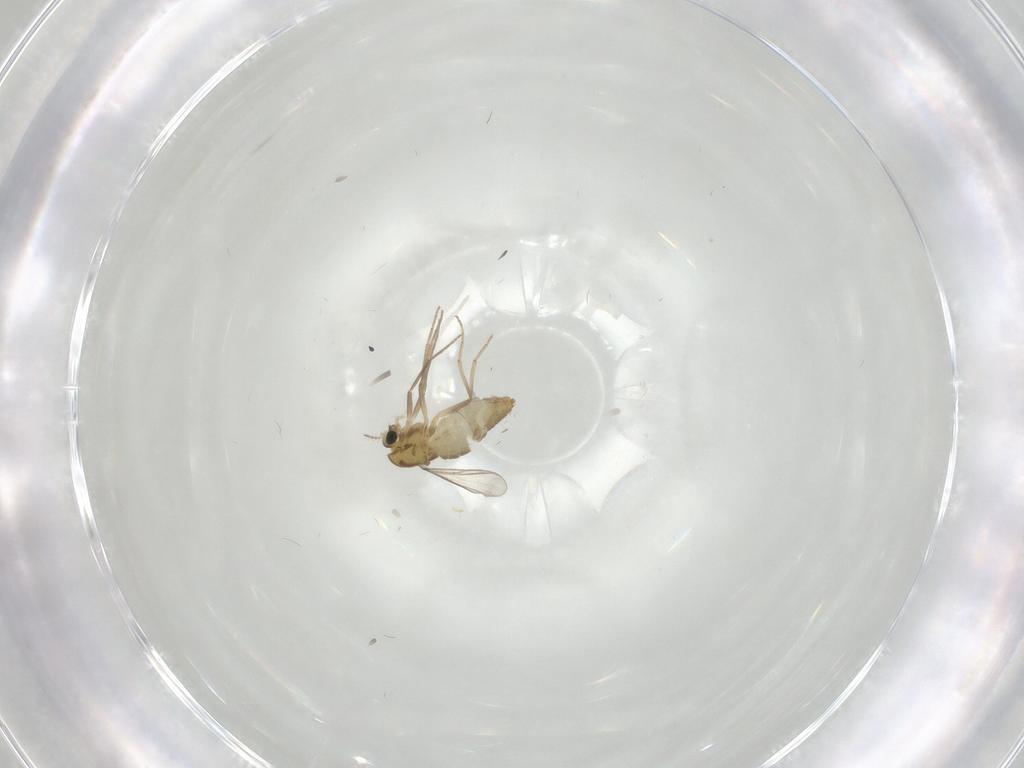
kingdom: Animalia
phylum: Arthropoda
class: Insecta
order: Diptera
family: Chironomidae
